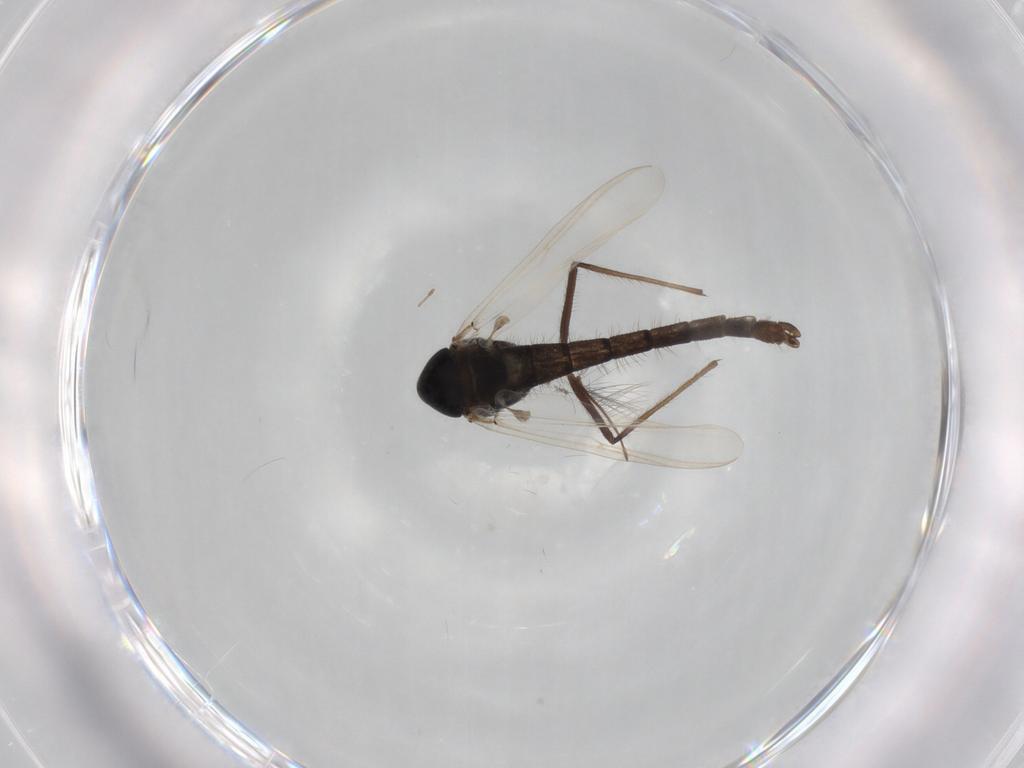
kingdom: Animalia
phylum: Arthropoda
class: Insecta
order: Diptera
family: Chironomidae
